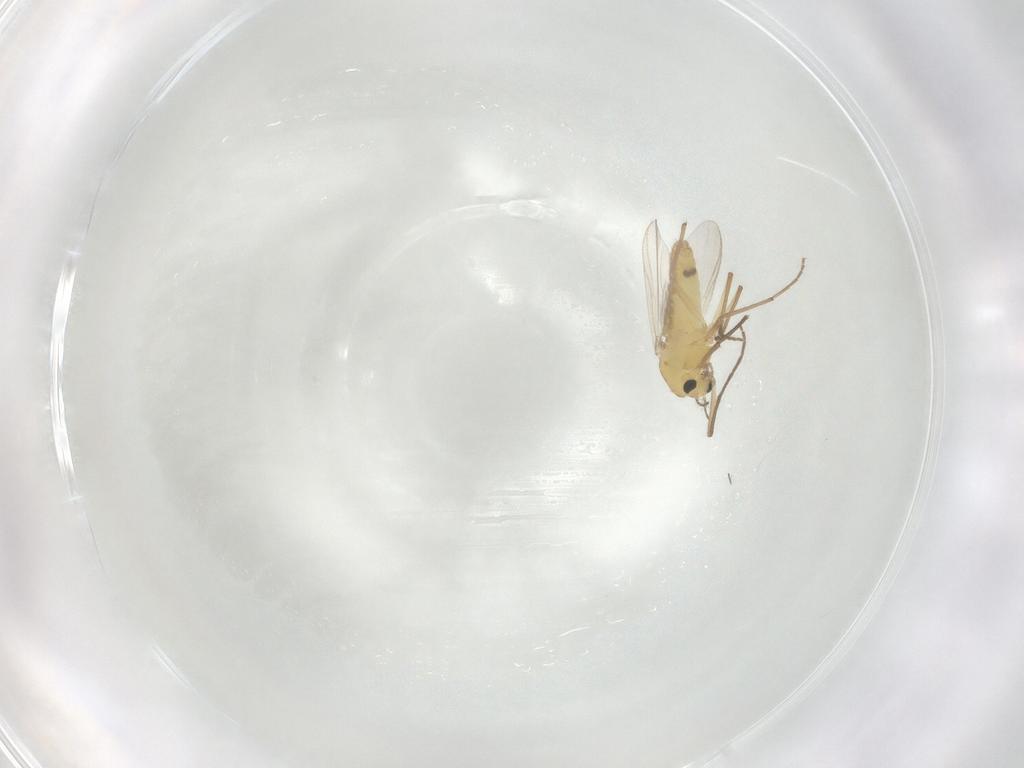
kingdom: Animalia
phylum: Arthropoda
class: Insecta
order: Diptera
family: Chironomidae
